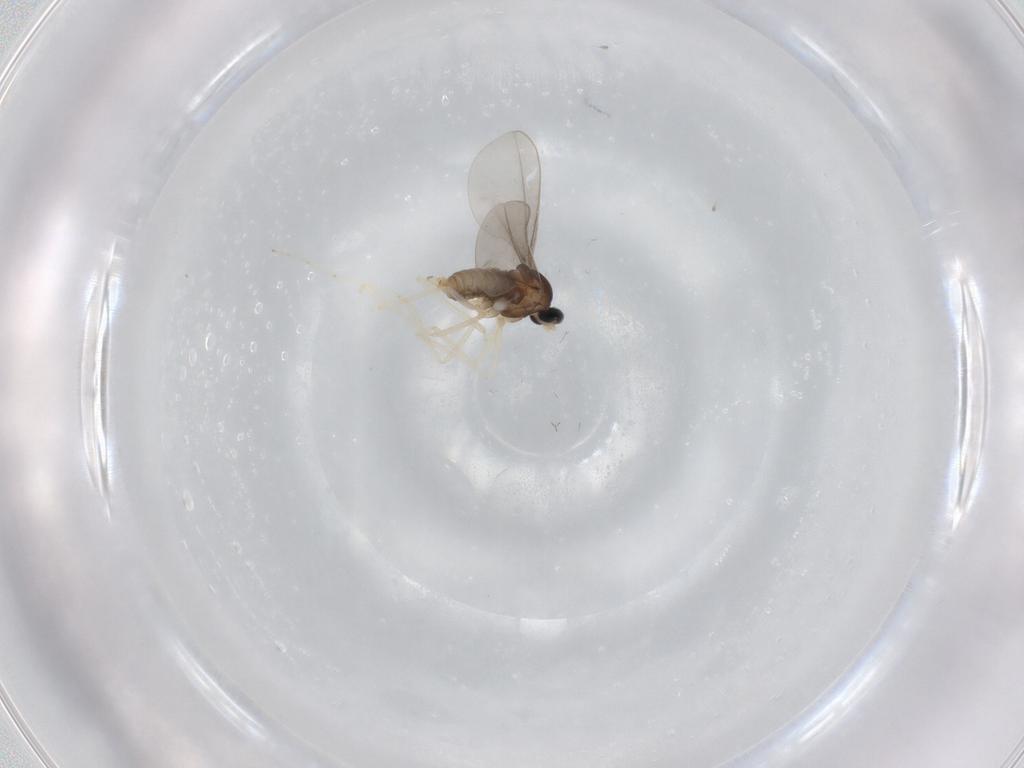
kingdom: Animalia
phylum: Arthropoda
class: Insecta
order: Diptera
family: Cecidomyiidae
